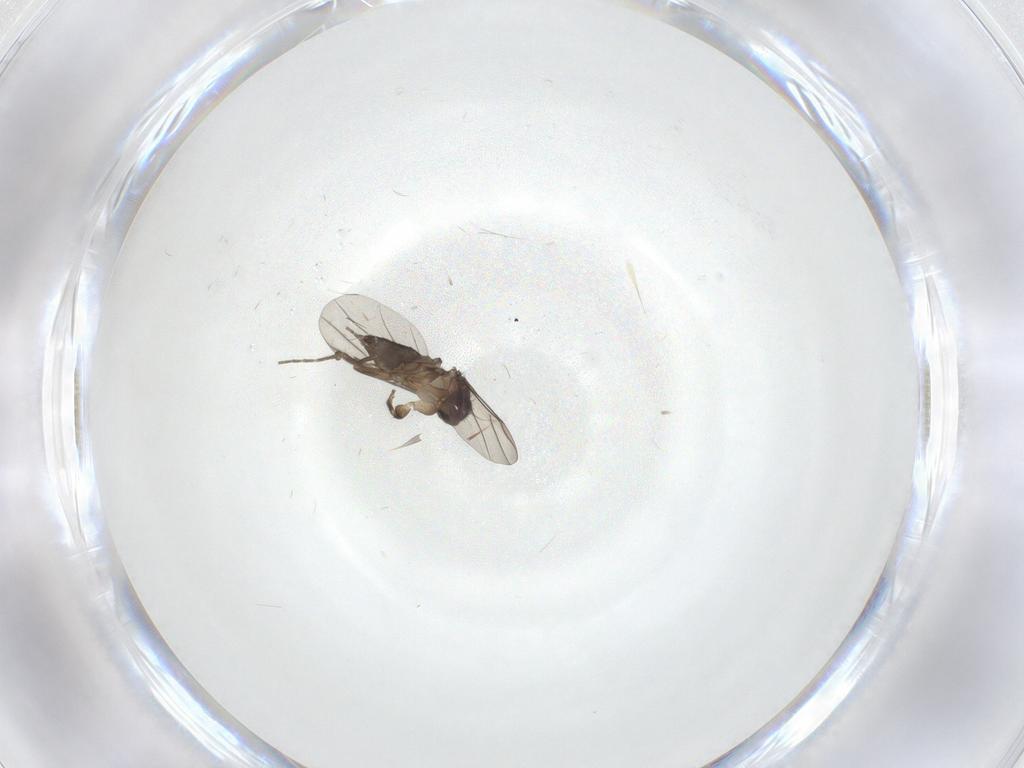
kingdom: Animalia
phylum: Arthropoda
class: Insecta
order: Diptera
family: Phoridae
